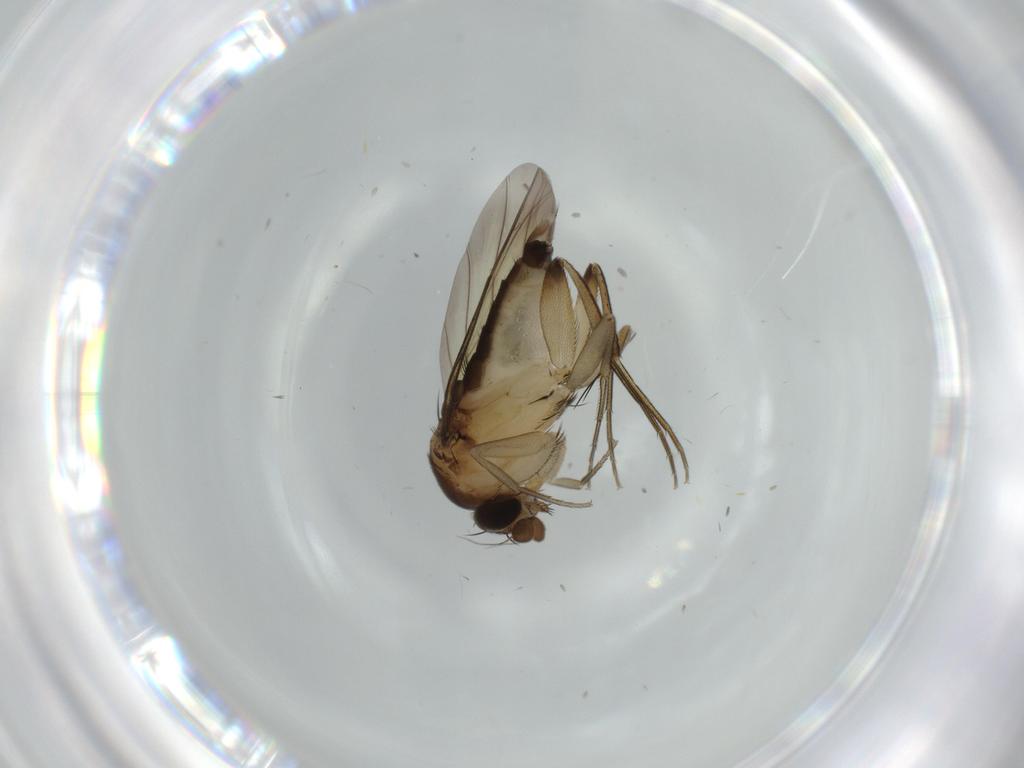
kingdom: Animalia
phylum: Arthropoda
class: Insecta
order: Diptera
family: Phoridae
